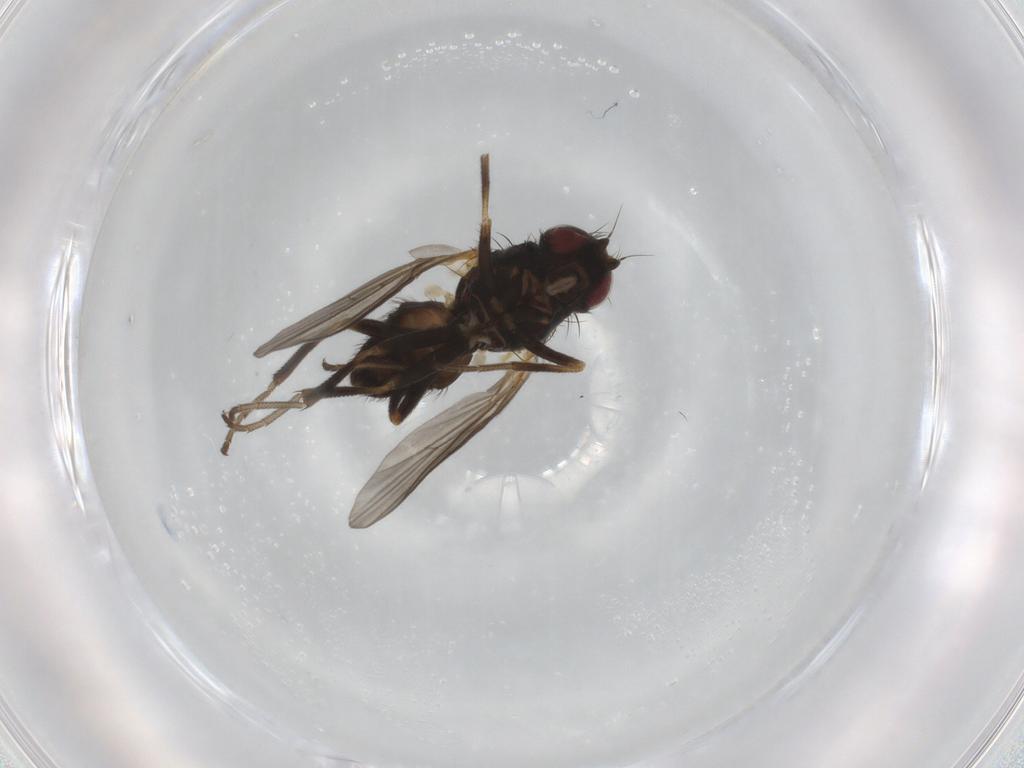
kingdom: Animalia
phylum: Arthropoda
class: Insecta
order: Diptera
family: Agromyzidae
